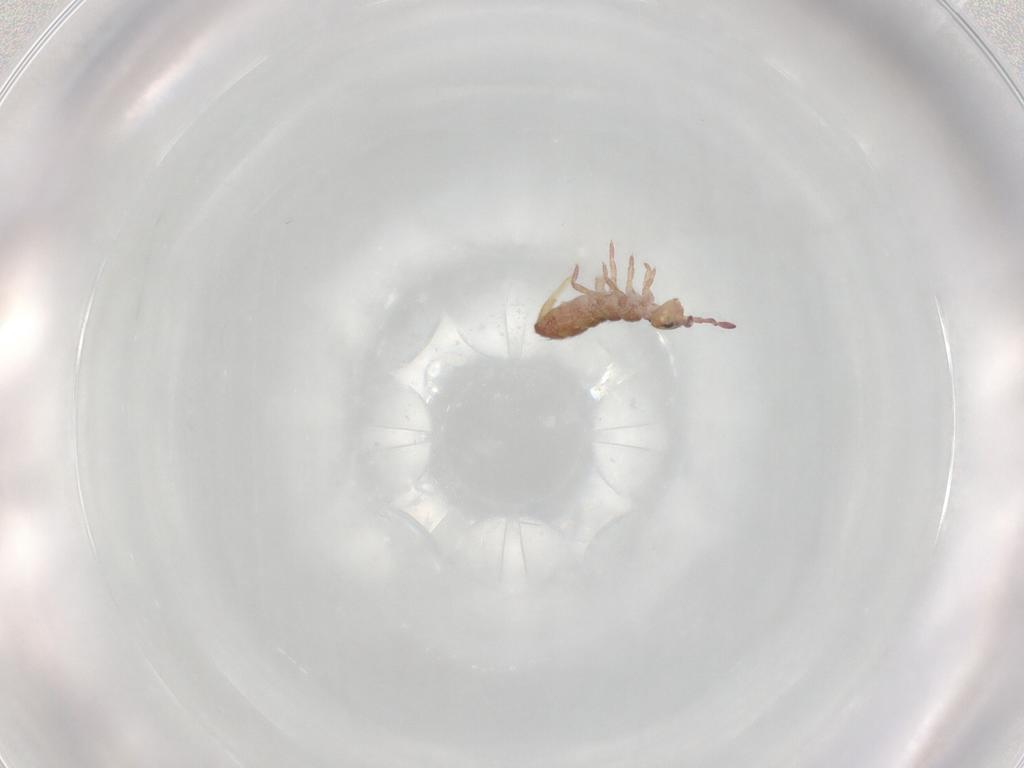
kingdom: Animalia
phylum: Arthropoda
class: Collembola
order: Entomobryomorpha
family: Isotomidae
